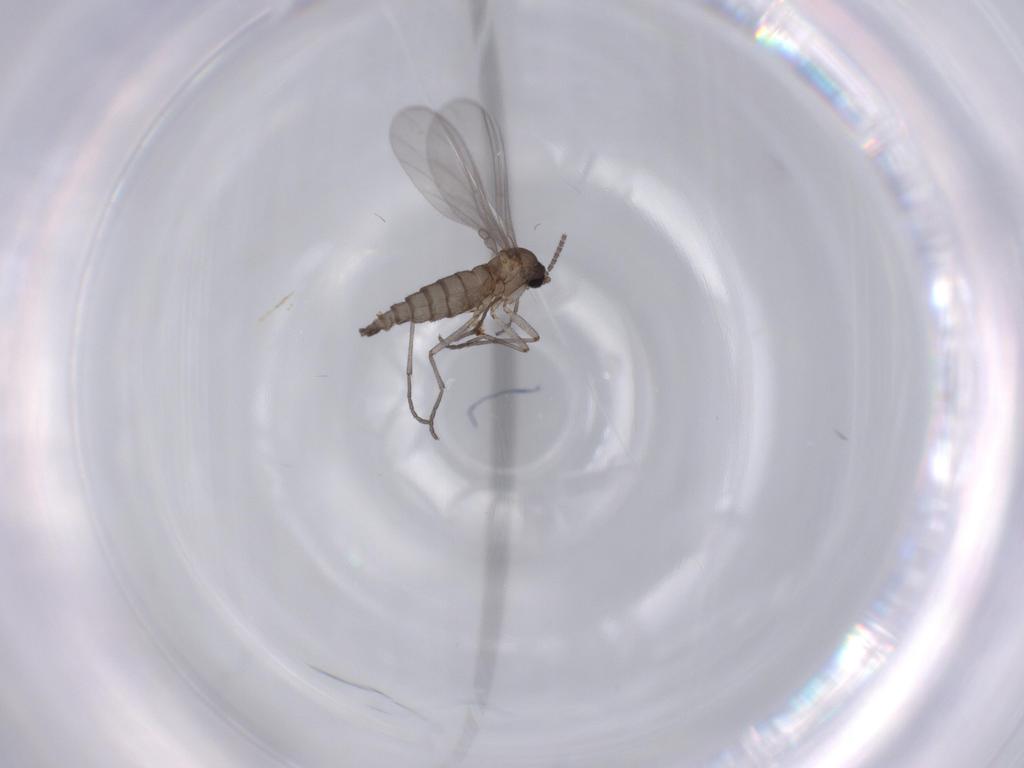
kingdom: Animalia
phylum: Arthropoda
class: Insecta
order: Diptera
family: Sciaridae
